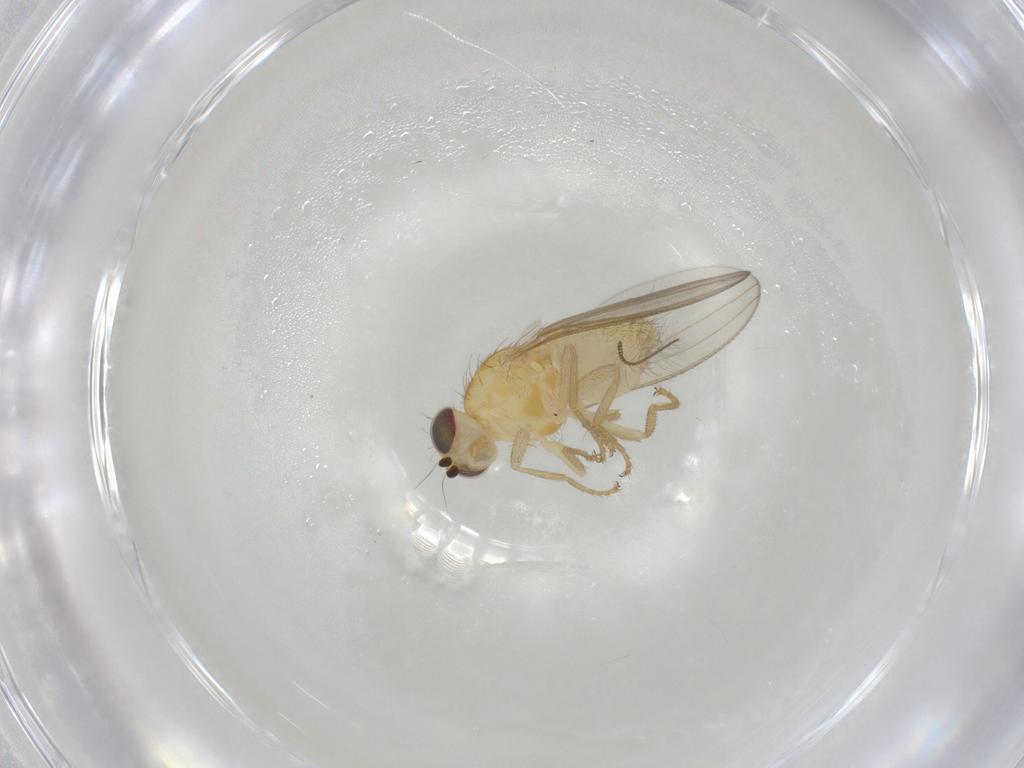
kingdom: Animalia
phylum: Arthropoda
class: Insecta
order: Diptera
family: Chyromyidae
